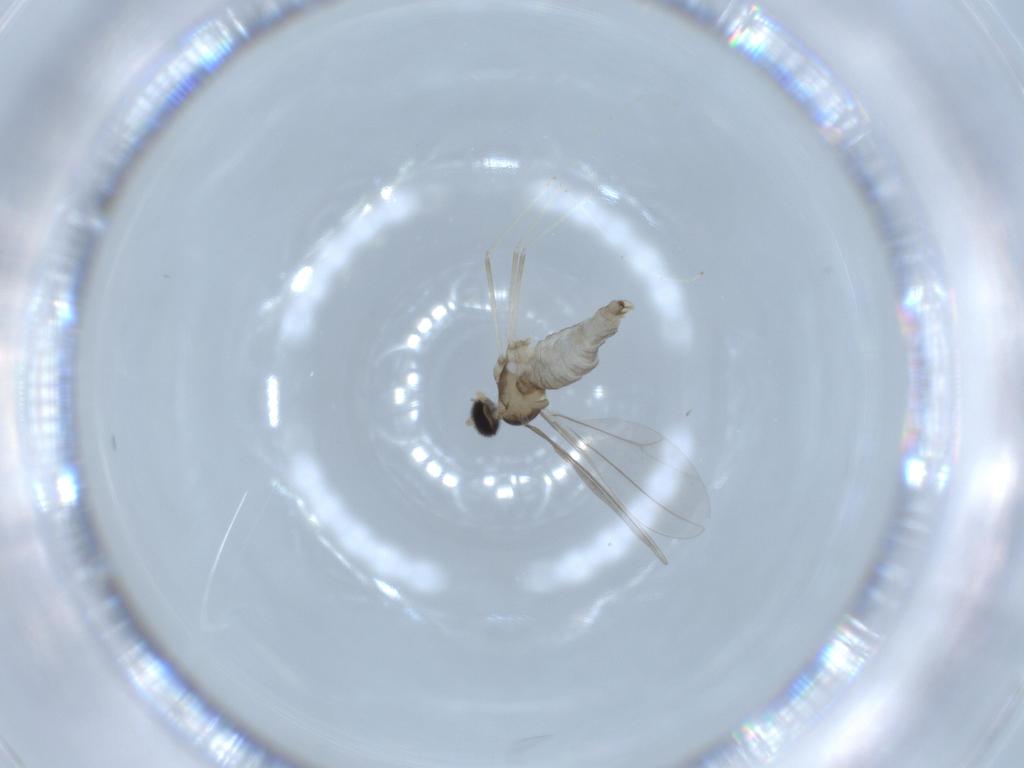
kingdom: Animalia
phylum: Arthropoda
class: Insecta
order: Diptera
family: Cecidomyiidae
